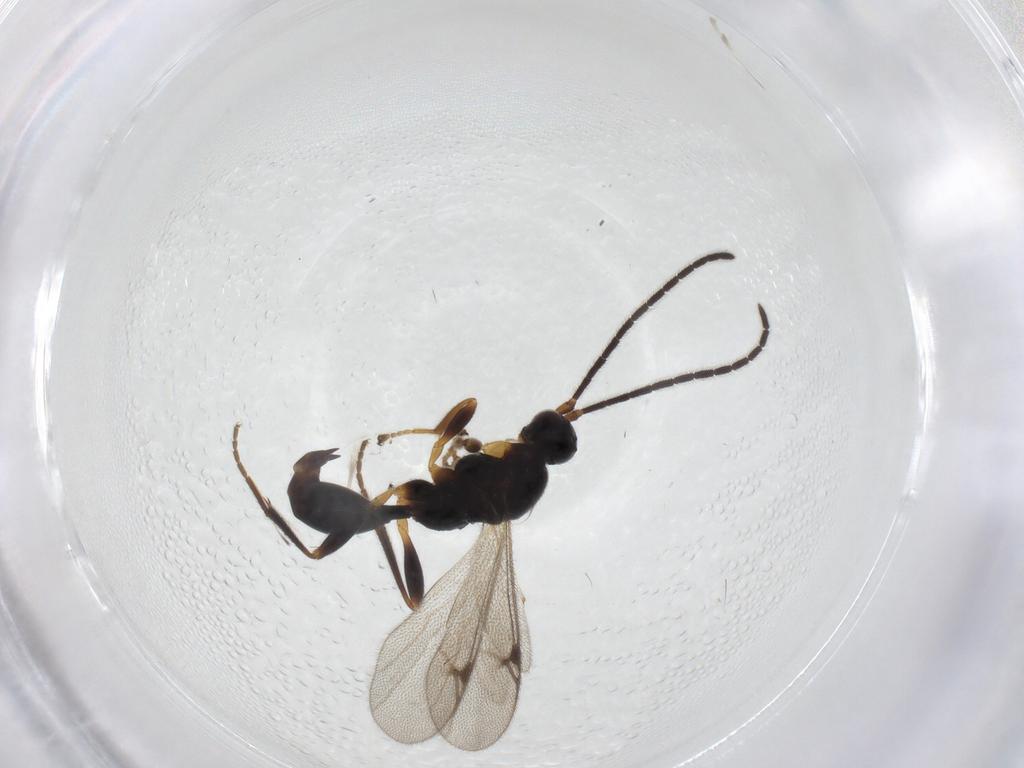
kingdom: Animalia
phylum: Arthropoda
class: Insecta
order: Hymenoptera
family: Proctotrupidae
